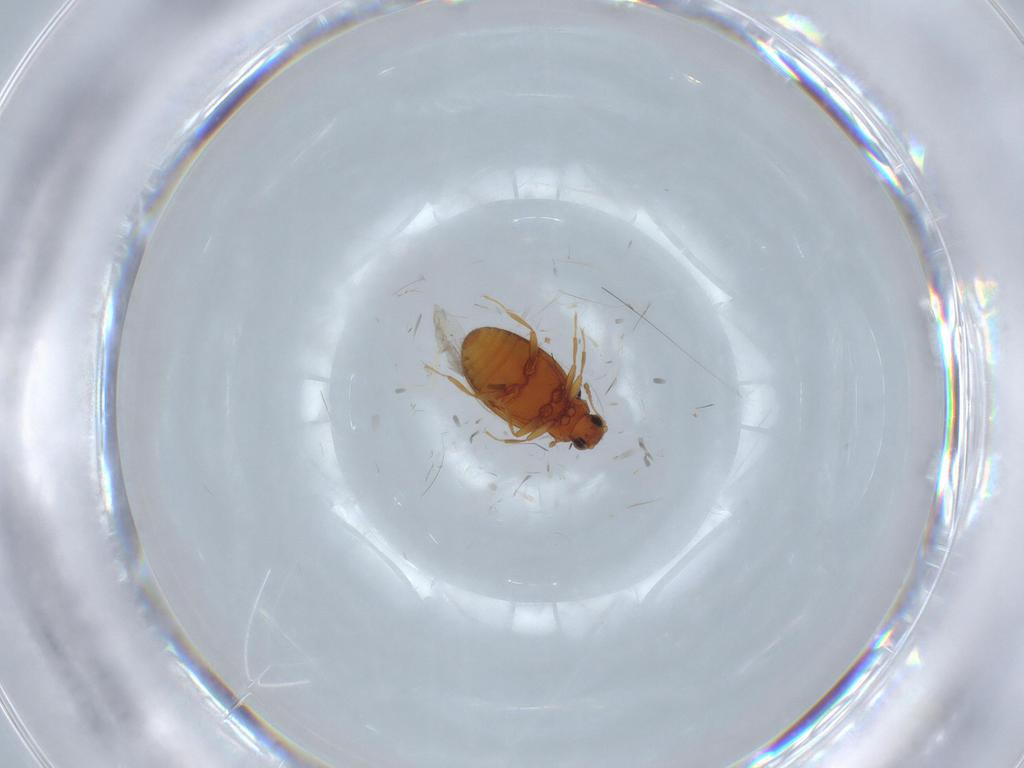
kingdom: Animalia
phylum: Arthropoda
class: Insecta
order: Coleoptera
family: Latridiidae
